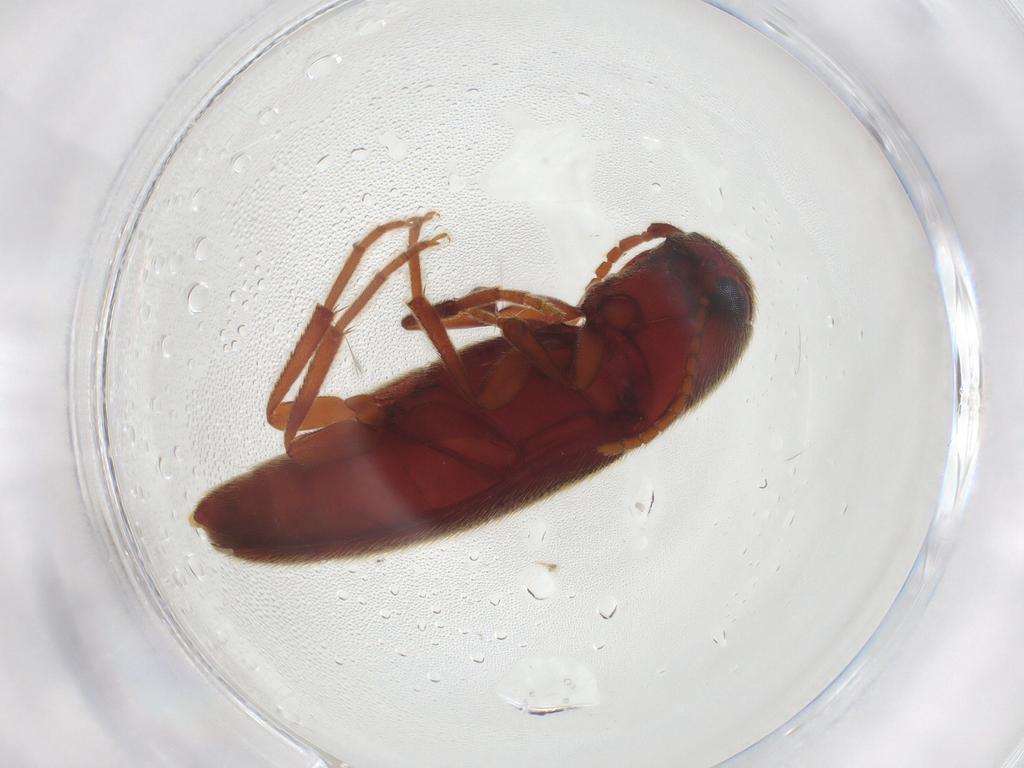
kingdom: Animalia
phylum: Arthropoda
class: Insecta
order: Coleoptera
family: Eucnemidae
